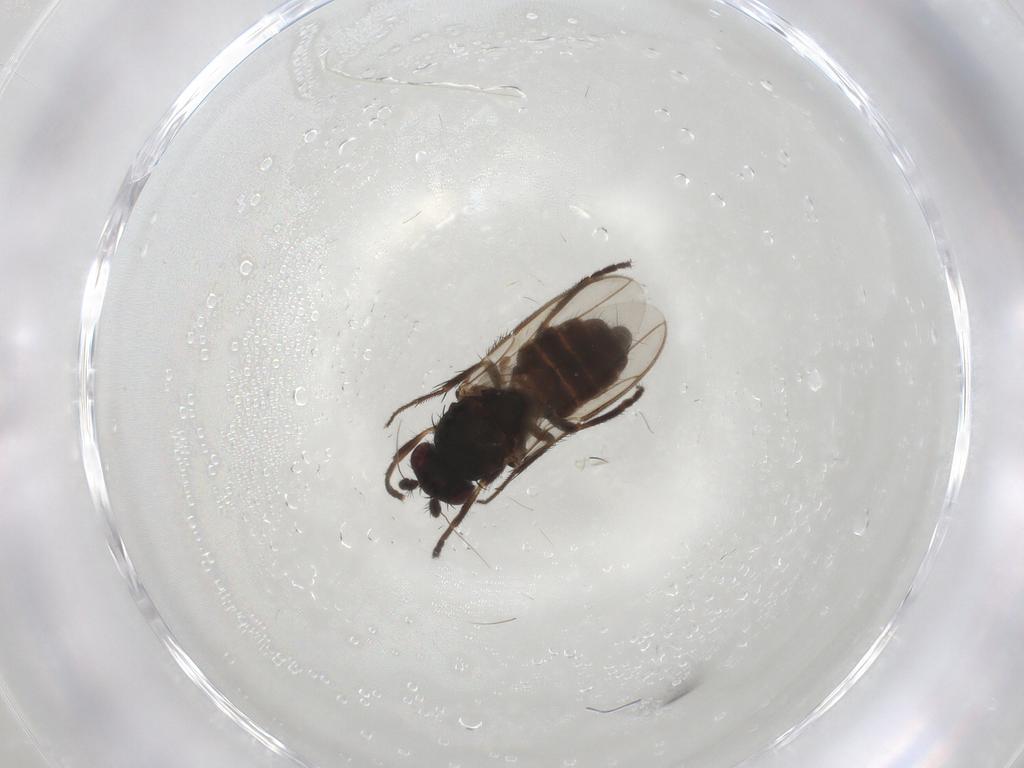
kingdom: Animalia
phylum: Arthropoda
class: Insecta
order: Diptera
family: Sphaeroceridae
